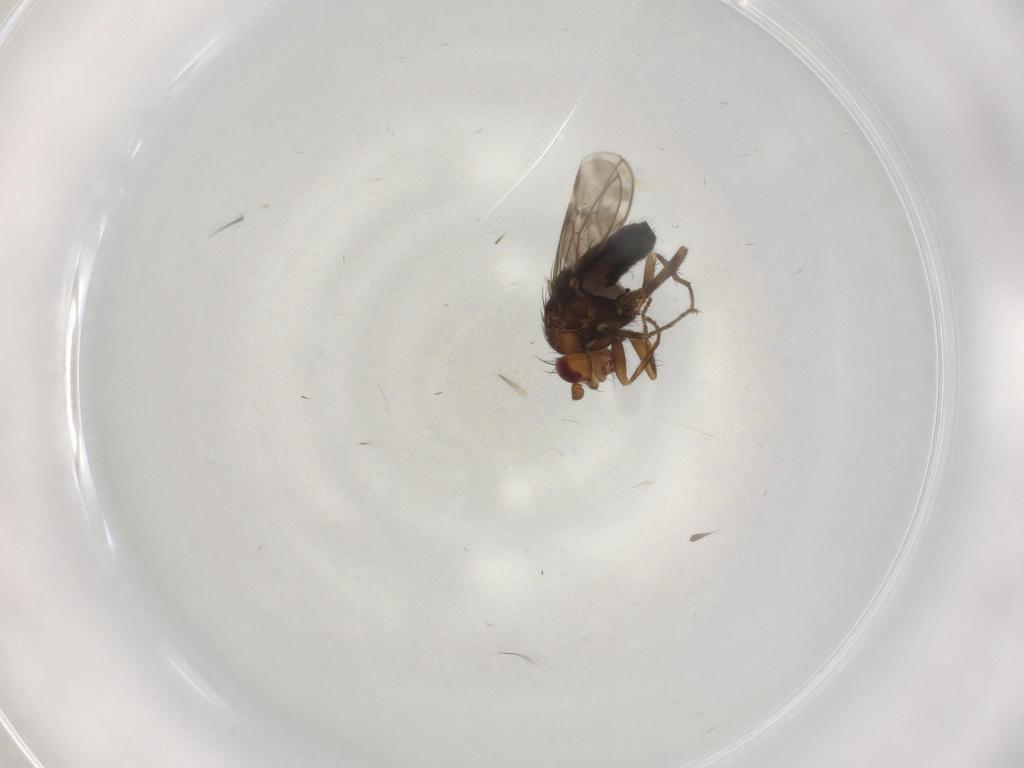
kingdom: Animalia
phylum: Arthropoda
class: Insecta
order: Diptera
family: Sphaeroceridae
